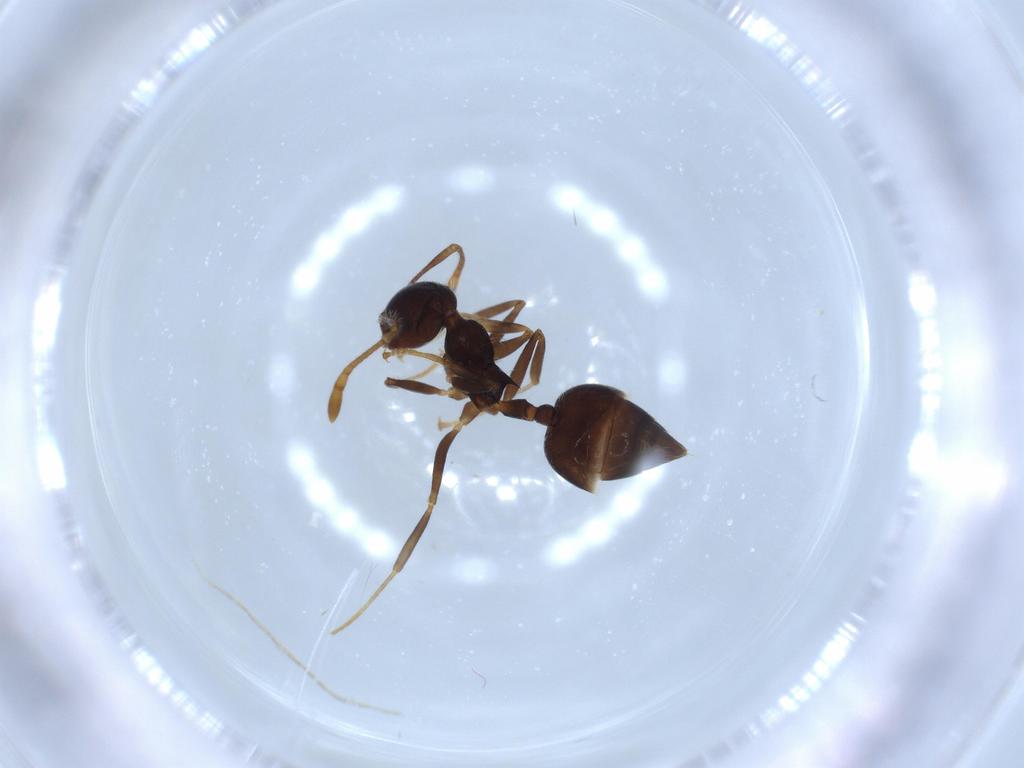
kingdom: Animalia
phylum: Arthropoda
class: Insecta
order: Hymenoptera
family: Formicidae
